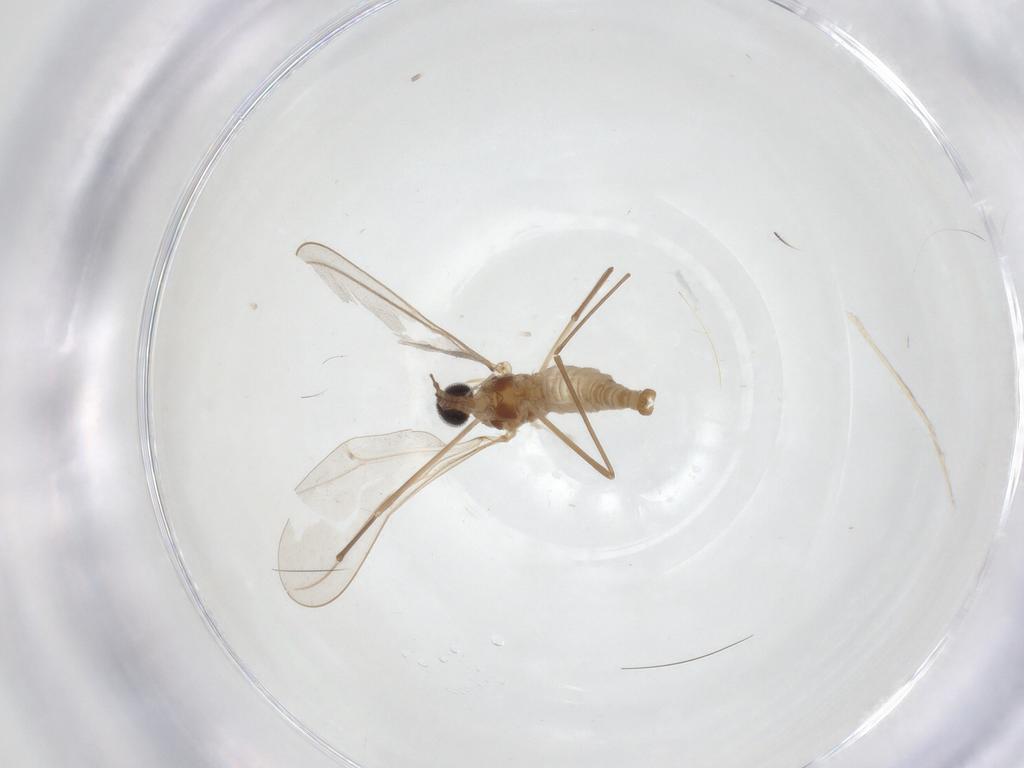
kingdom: Animalia
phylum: Arthropoda
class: Insecta
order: Diptera
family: Cecidomyiidae
